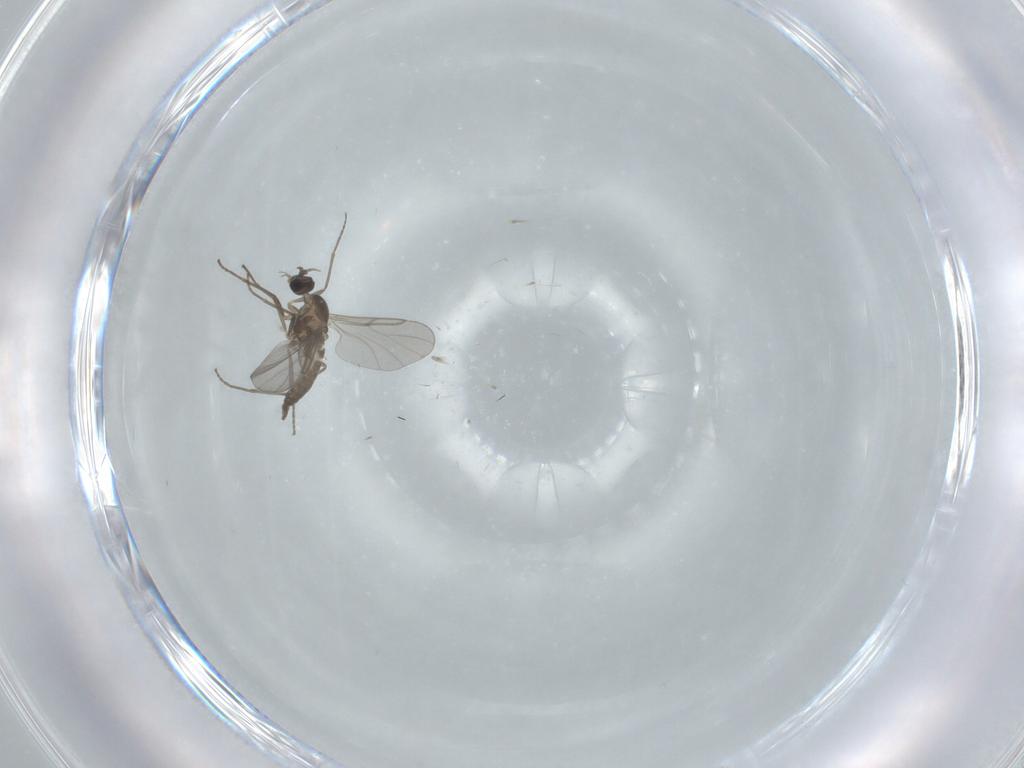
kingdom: Animalia
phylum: Arthropoda
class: Insecta
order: Diptera
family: Cecidomyiidae
